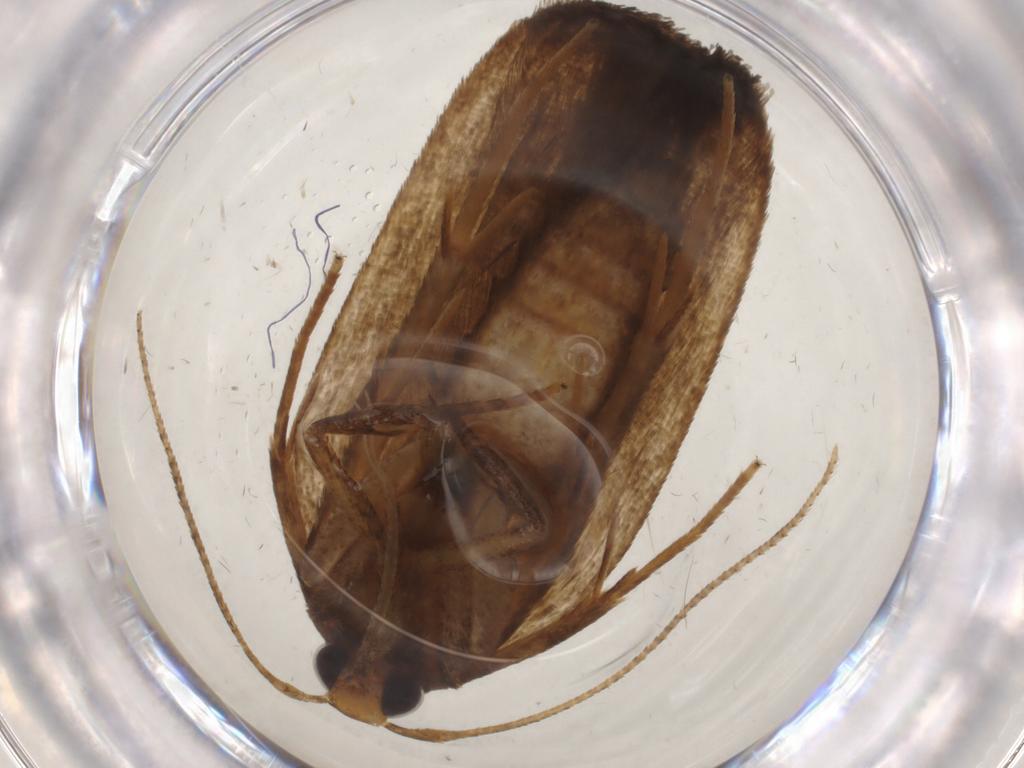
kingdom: Animalia
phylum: Arthropoda
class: Insecta
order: Lepidoptera
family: Autostichidae
